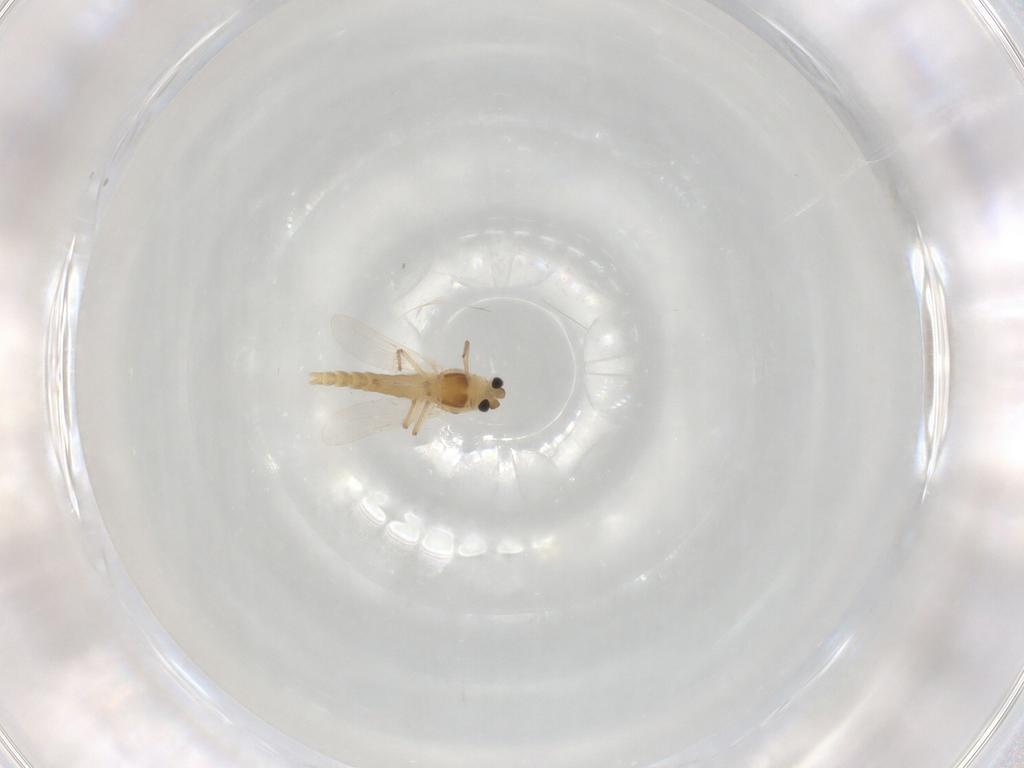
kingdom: Animalia
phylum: Arthropoda
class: Insecta
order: Diptera
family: Chironomidae
